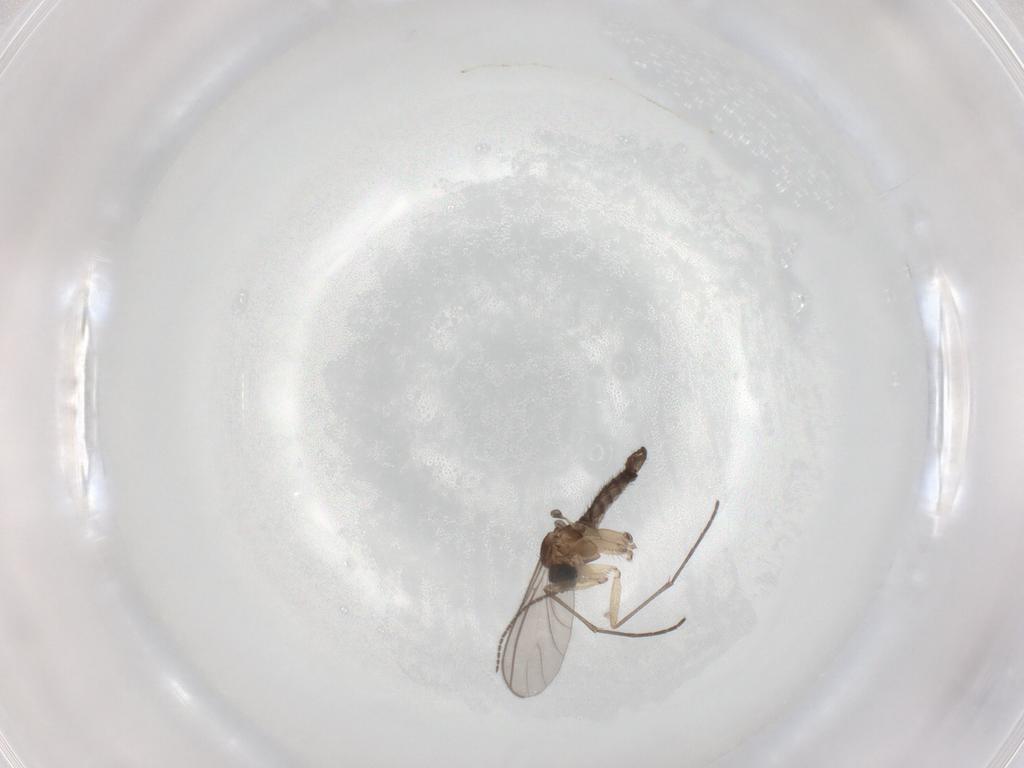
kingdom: Animalia
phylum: Arthropoda
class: Insecta
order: Diptera
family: Sciaridae
